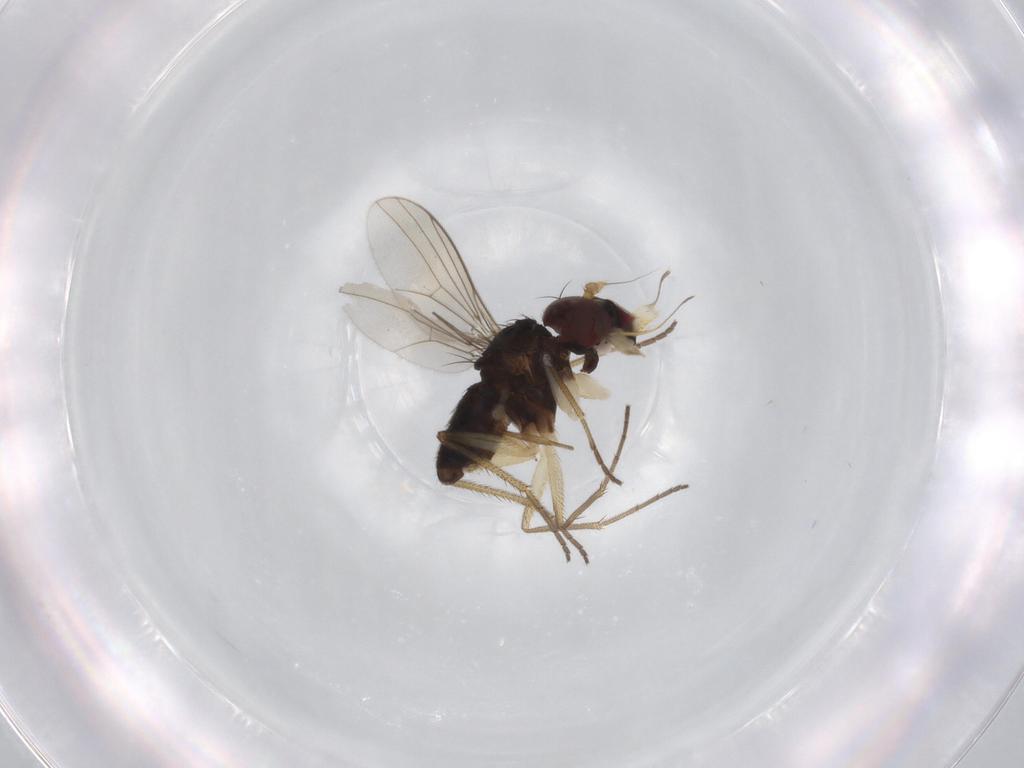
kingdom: Animalia
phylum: Arthropoda
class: Insecta
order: Diptera
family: Dolichopodidae
